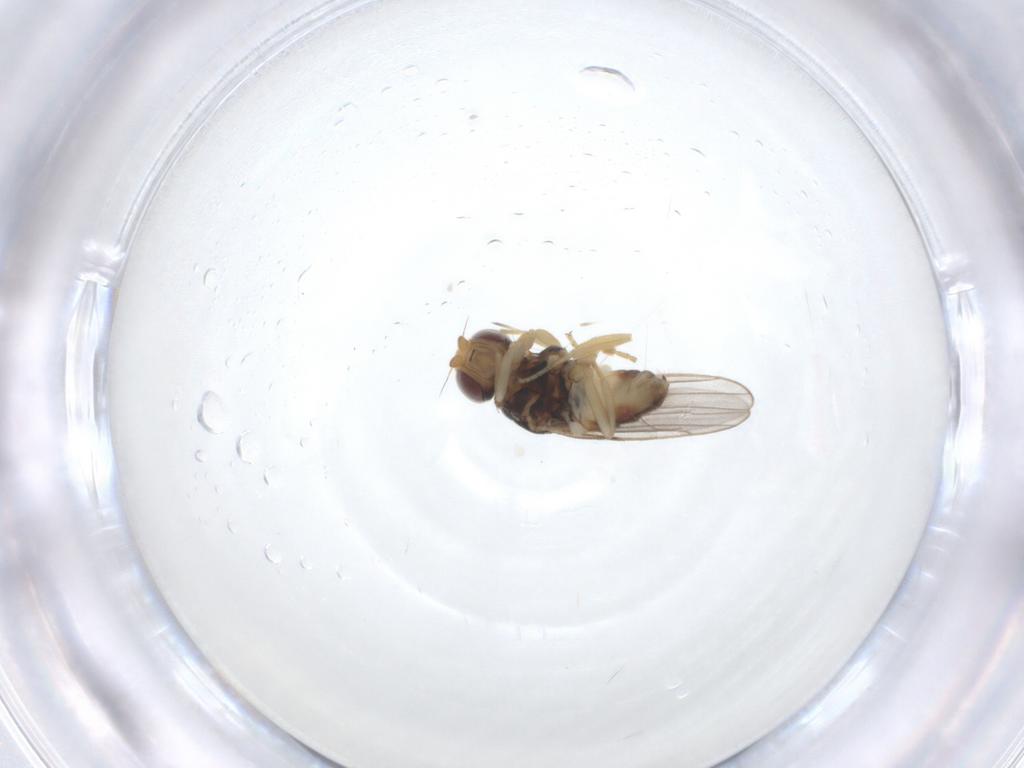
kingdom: Animalia
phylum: Arthropoda
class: Insecta
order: Diptera
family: Chloropidae
